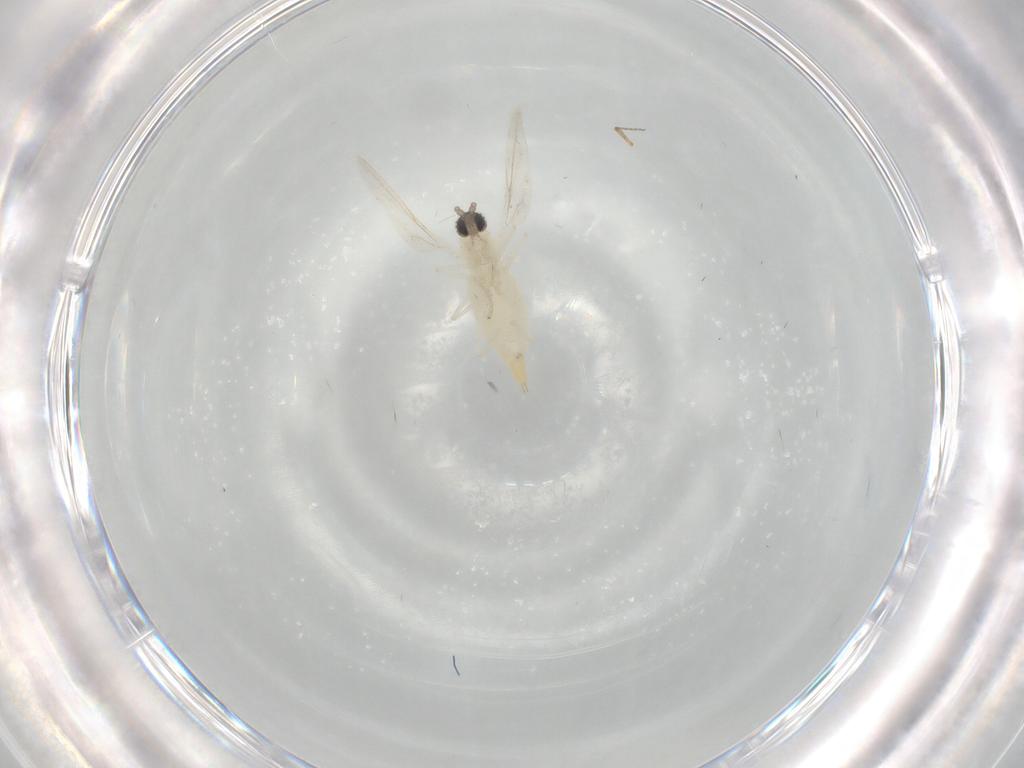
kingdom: Animalia
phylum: Arthropoda
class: Insecta
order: Diptera
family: Cecidomyiidae
